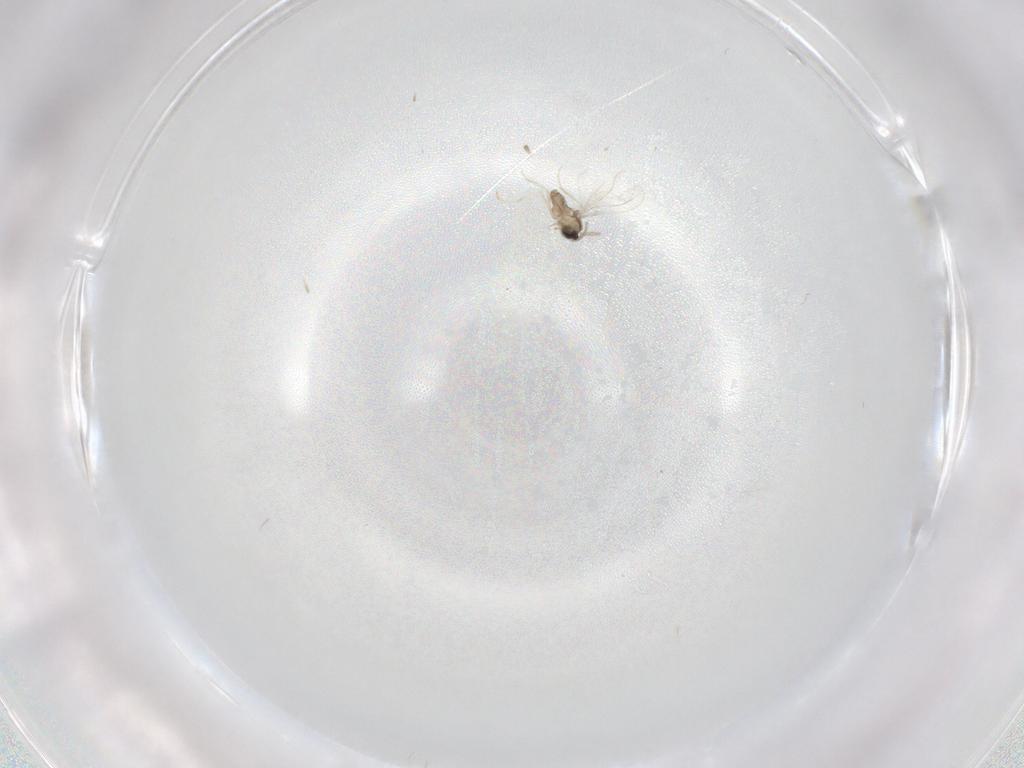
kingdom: Animalia
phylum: Arthropoda
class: Insecta
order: Diptera
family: Cecidomyiidae
